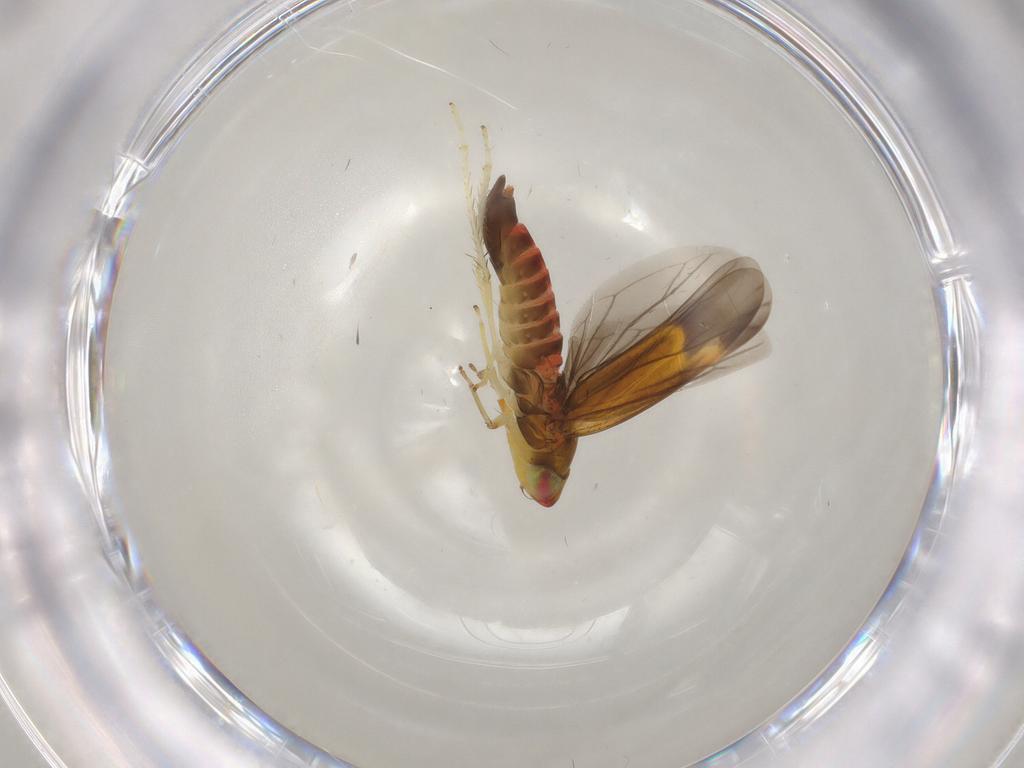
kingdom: Animalia
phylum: Arthropoda
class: Insecta
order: Hemiptera
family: Cicadellidae
